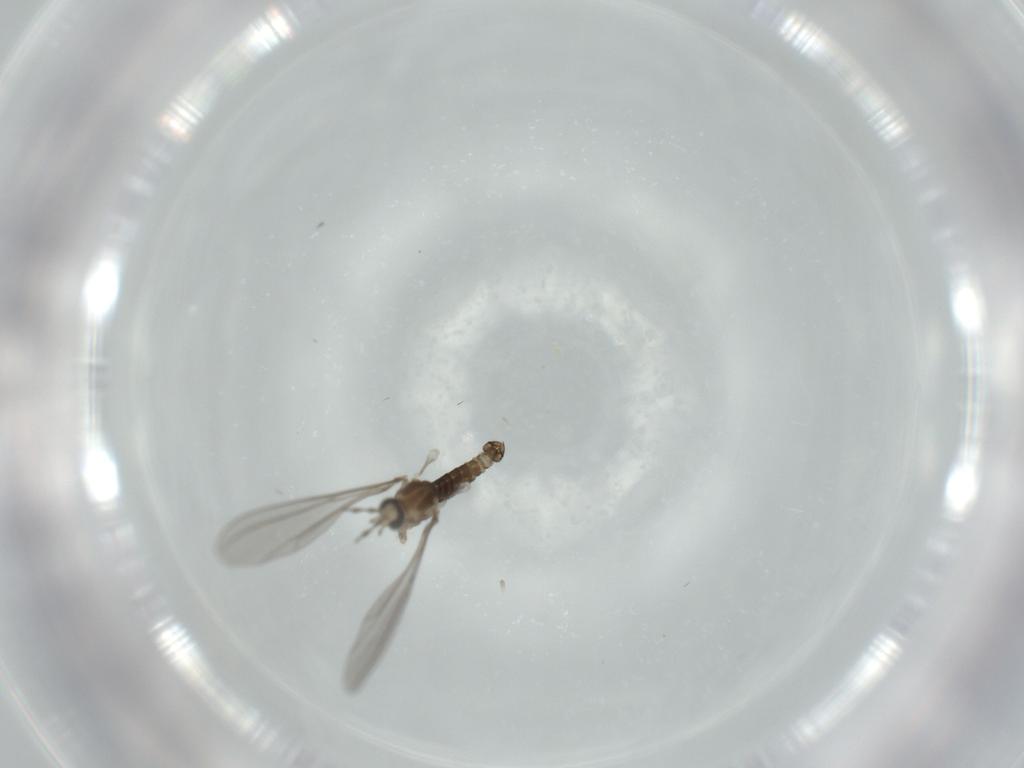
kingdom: Animalia
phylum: Arthropoda
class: Insecta
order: Diptera
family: Cecidomyiidae
